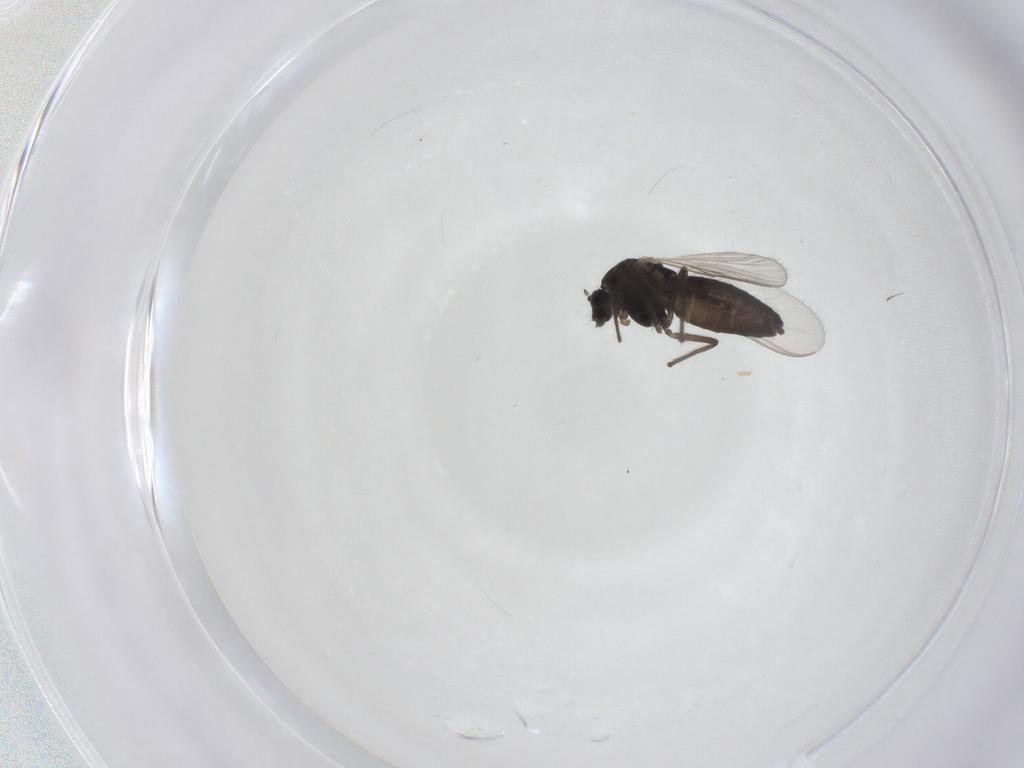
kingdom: Animalia
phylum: Arthropoda
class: Insecta
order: Diptera
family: Chironomidae
